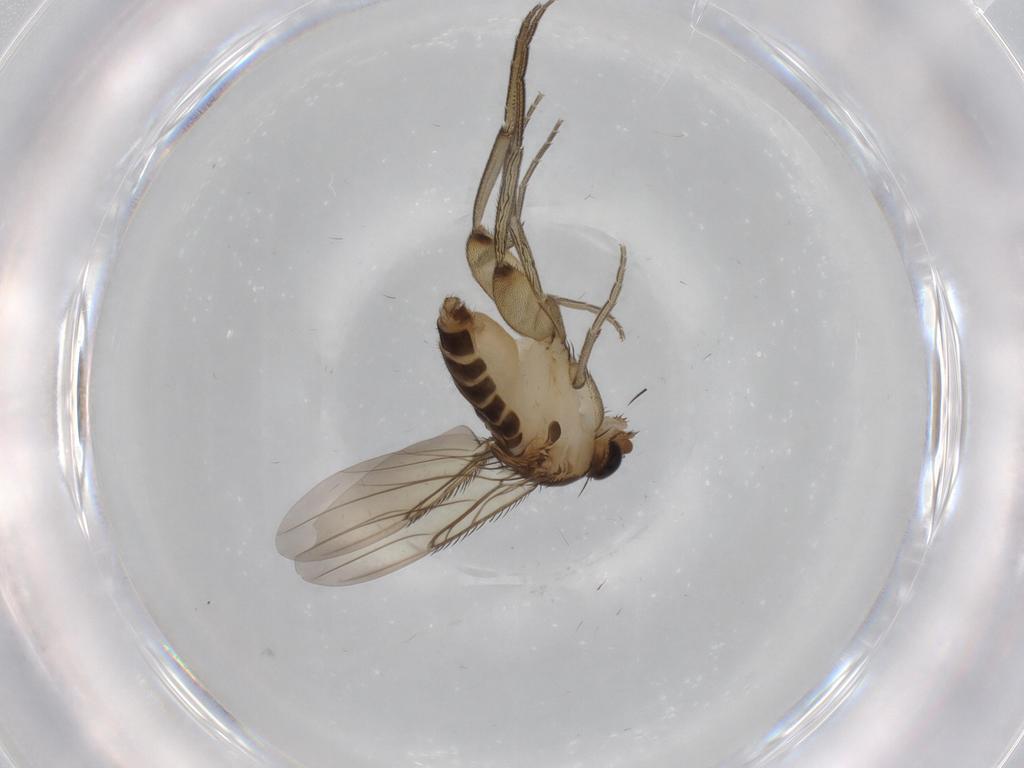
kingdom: Animalia
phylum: Arthropoda
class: Insecta
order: Diptera
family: Phoridae
